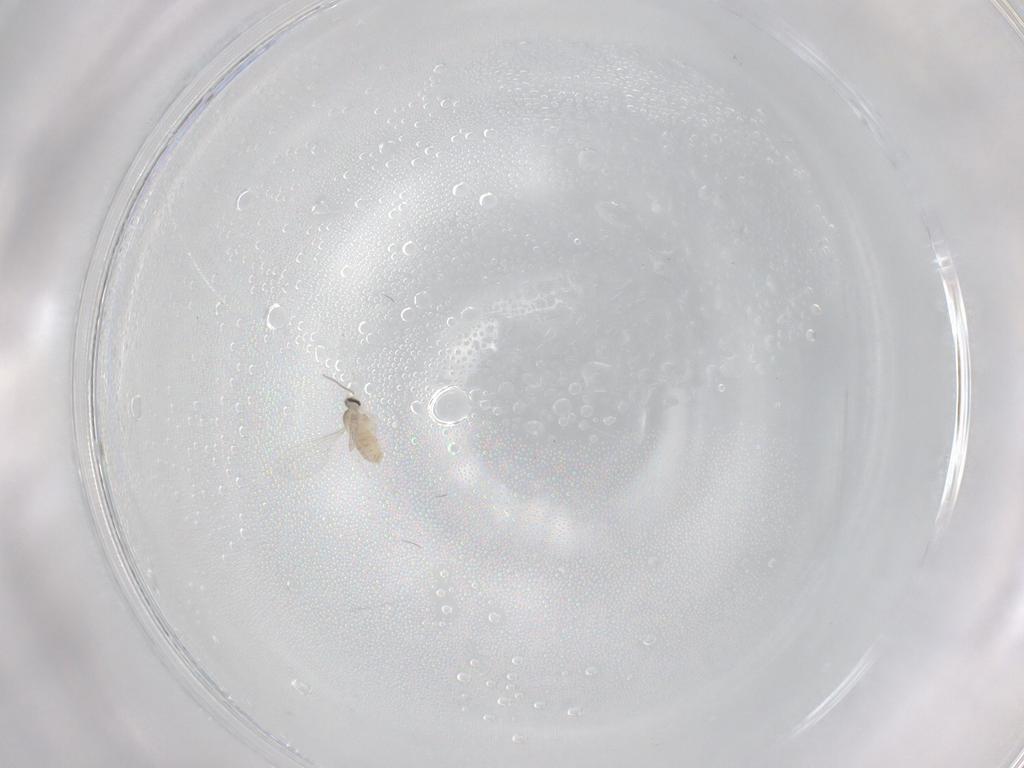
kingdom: Animalia
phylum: Arthropoda
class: Insecta
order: Diptera
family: Cecidomyiidae
